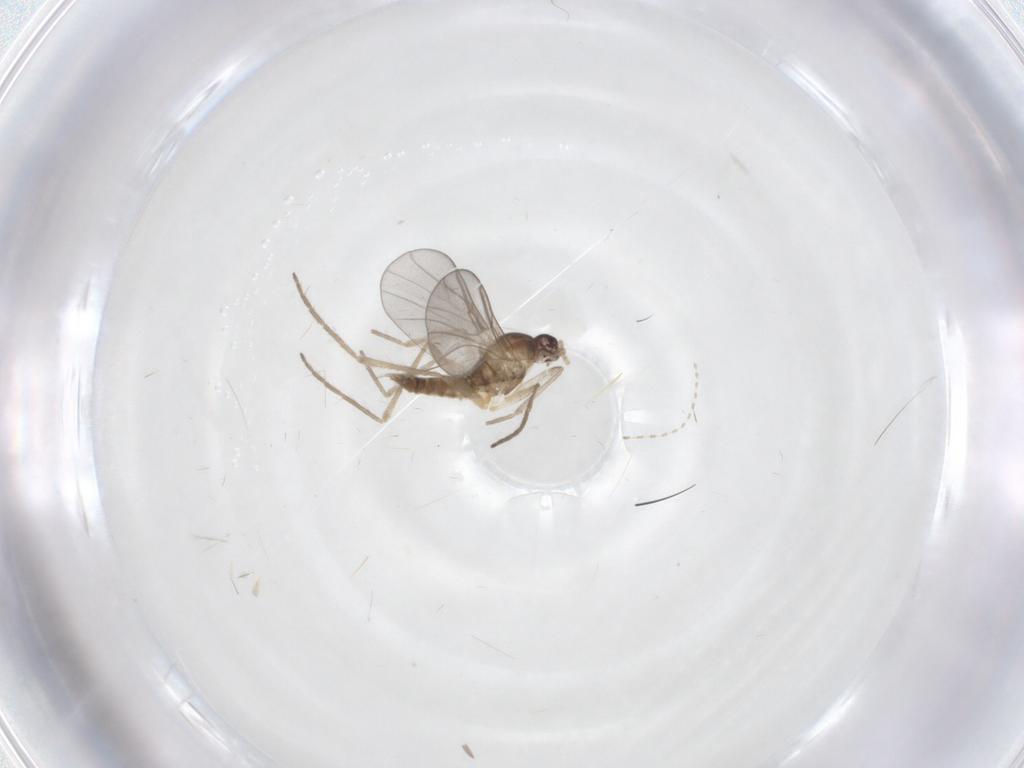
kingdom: Animalia
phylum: Arthropoda
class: Insecta
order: Diptera
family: Cecidomyiidae
